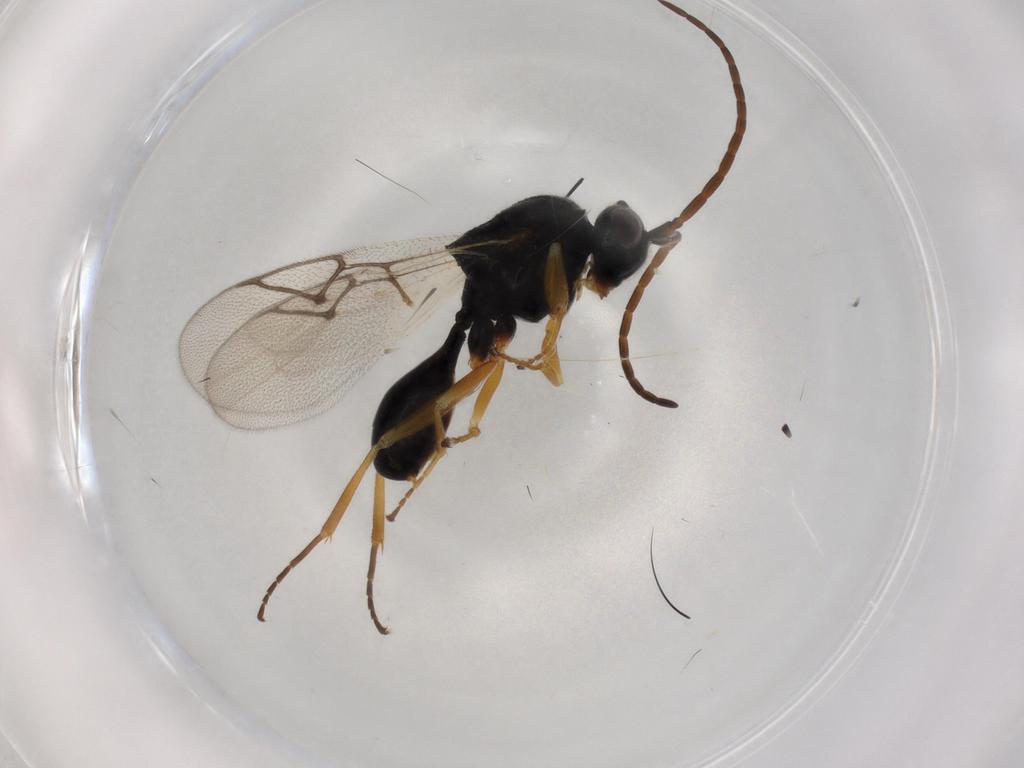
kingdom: Animalia
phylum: Arthropoda
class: Insecta
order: Hymenoptera
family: Figitidae
